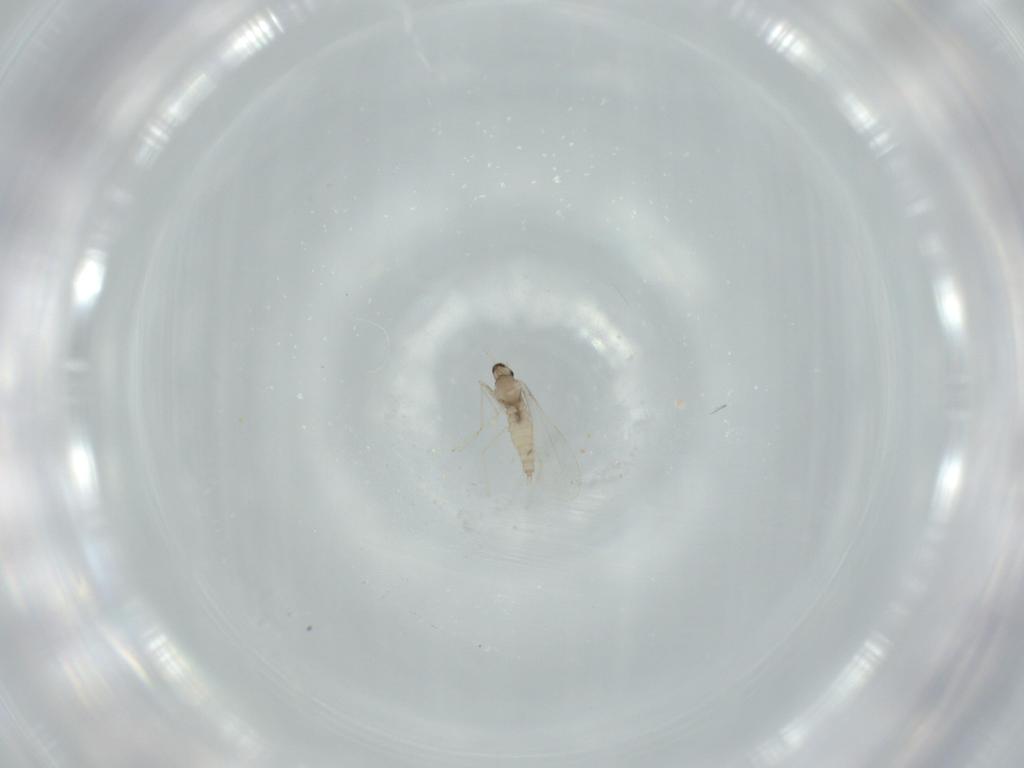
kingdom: Animalia
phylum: Arthropoda
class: Insecta
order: Diptera
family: Cecidomyiidae
